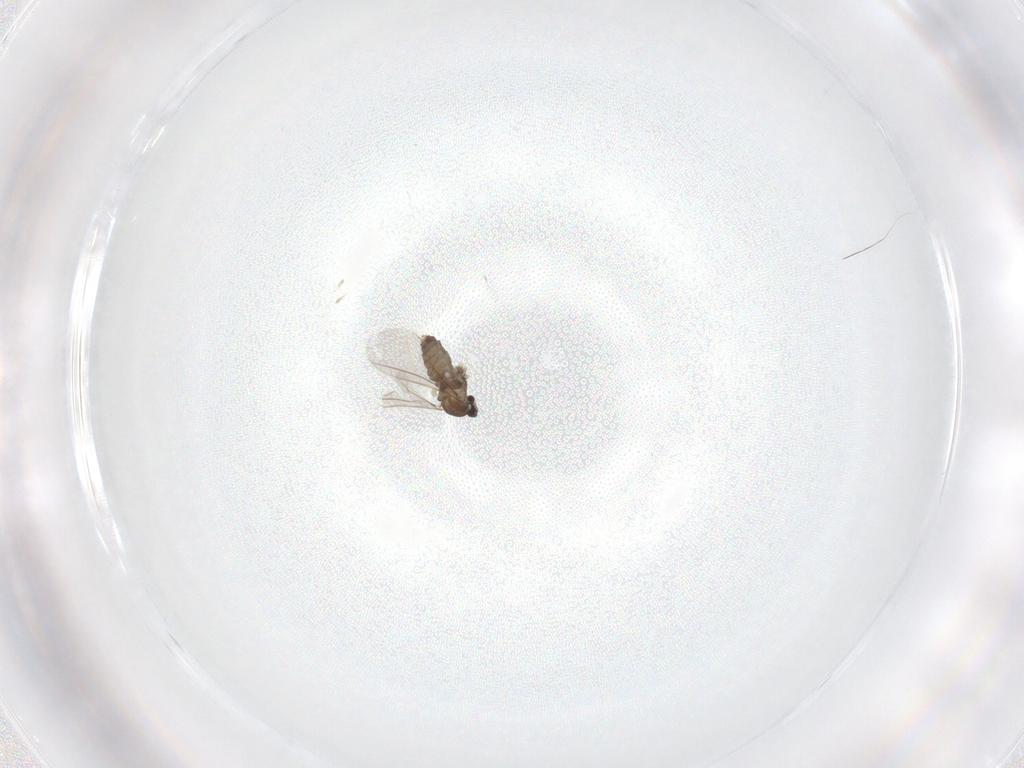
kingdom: Animalia
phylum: Arthropoda
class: Insecta
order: Diptera
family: Cecidomyiidae
